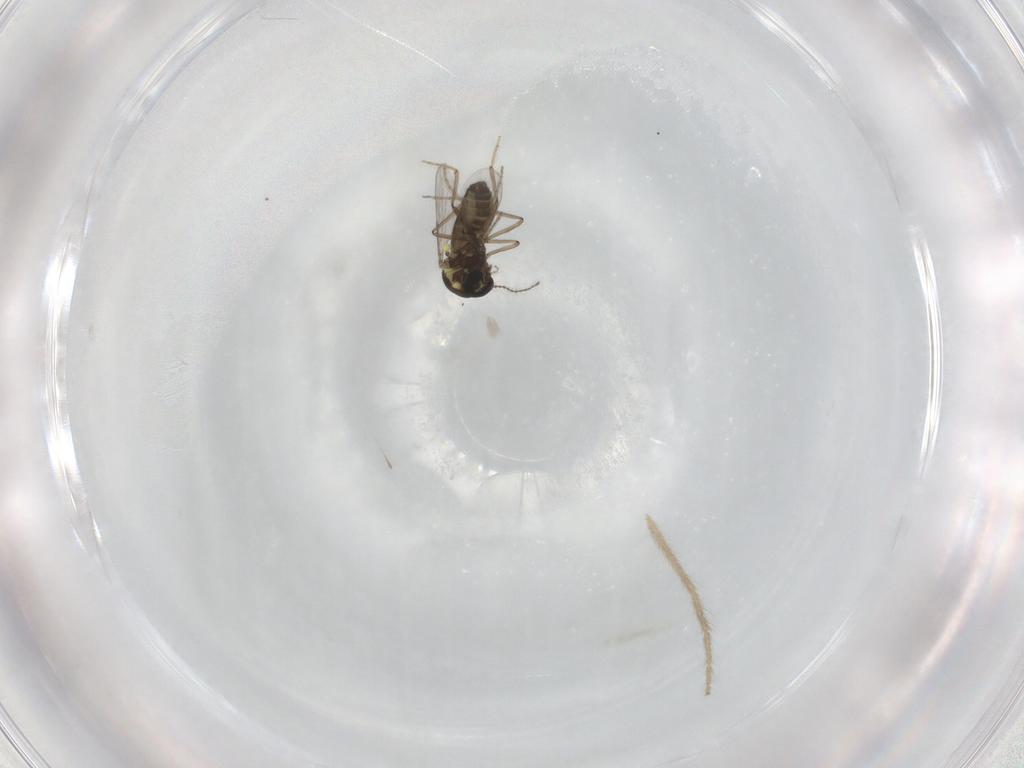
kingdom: Animalia
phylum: Arthropoda
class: Insecta
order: Diptera
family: Ceratopogonidae
